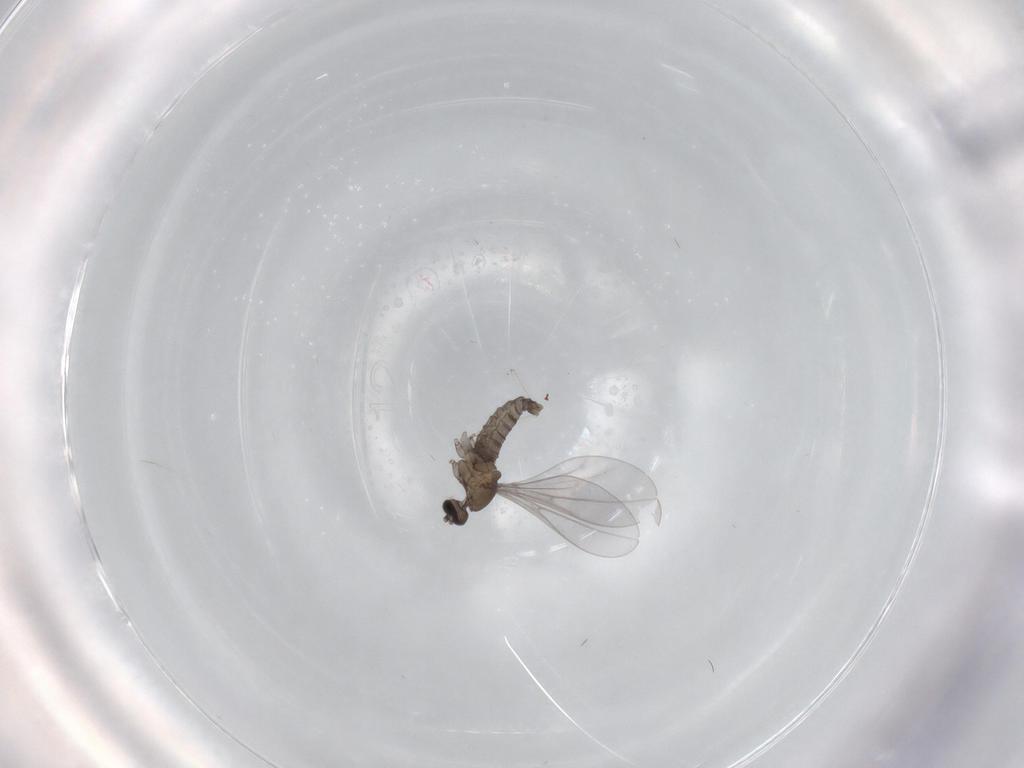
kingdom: Animalia
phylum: Arthropoda
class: Insecta
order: Diptera
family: Cecidomyiidae
